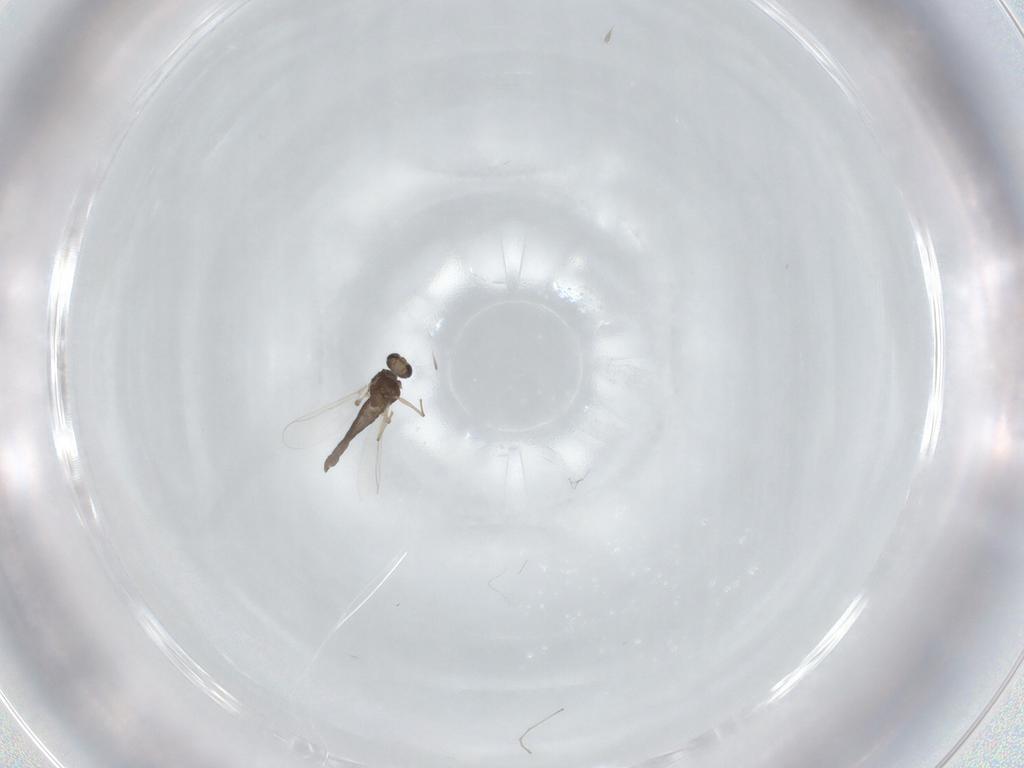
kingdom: Animalia
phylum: Arthropoda
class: Insecta
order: Diptera
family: Chironomidae
